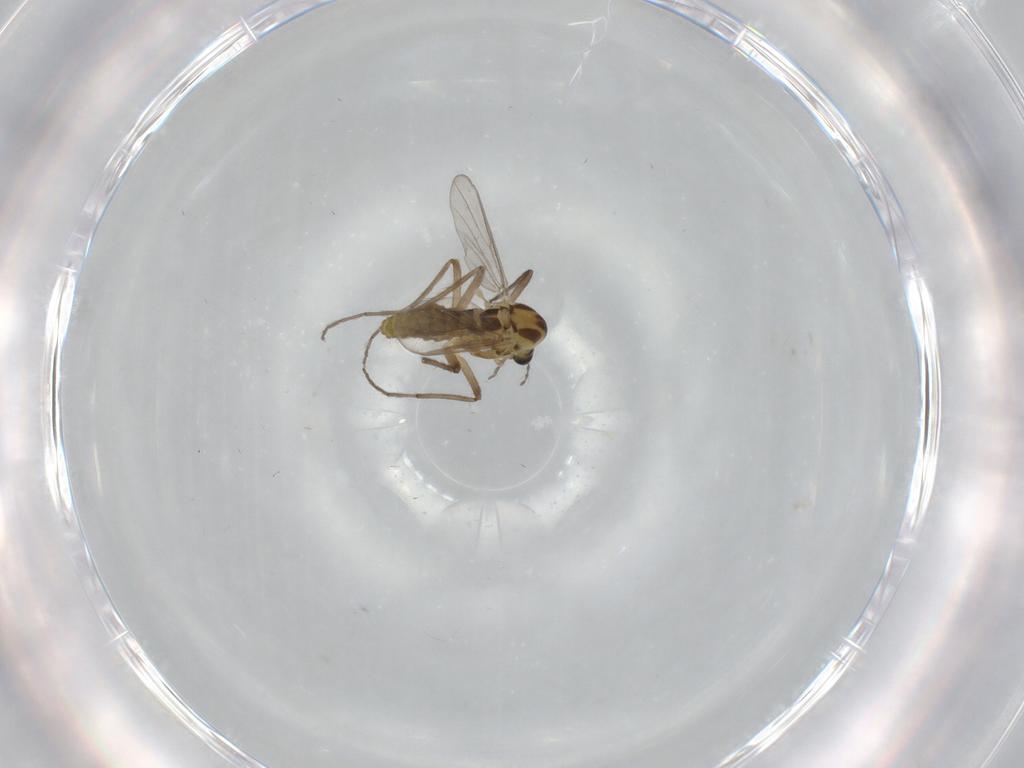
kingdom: Animalia
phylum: Arthropoda
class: Insecta
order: Diptera
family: Chironomidae
